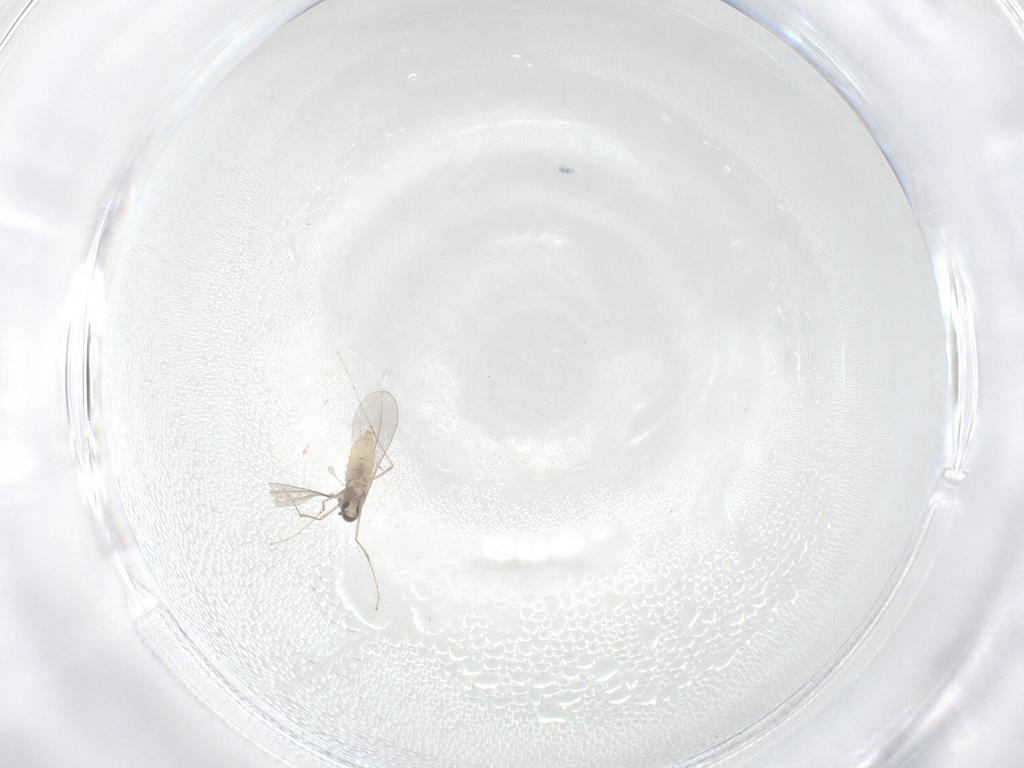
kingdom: Animalia
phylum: Arthropoda
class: Insecta
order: Diptera
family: Cecidomyiidae
